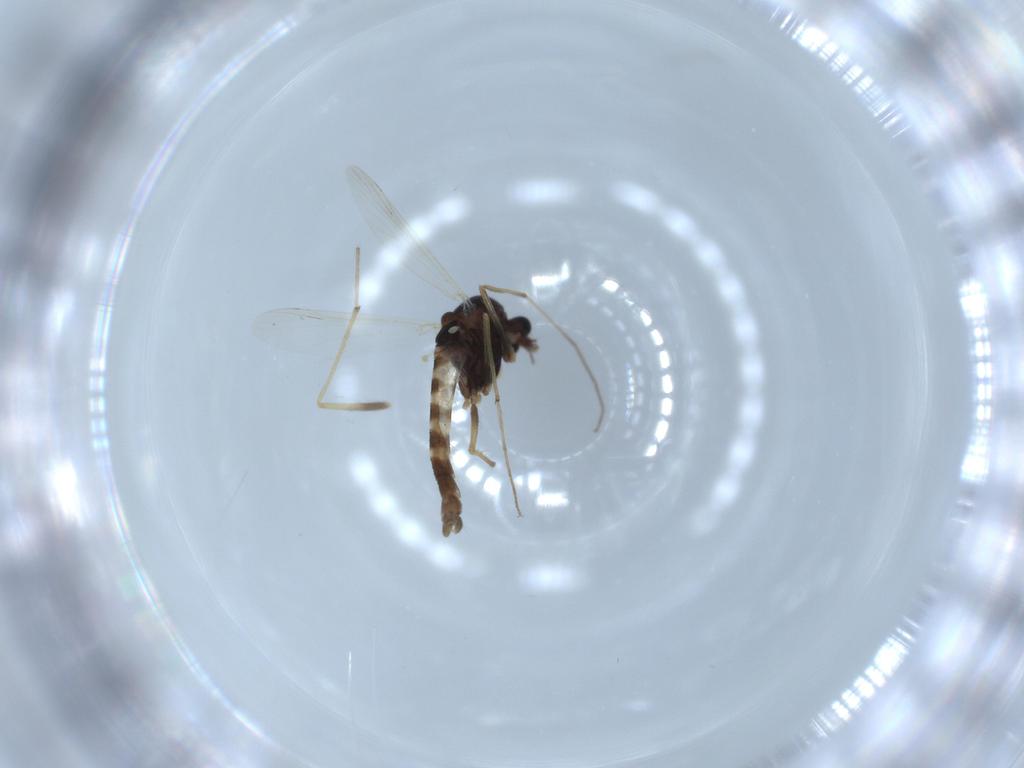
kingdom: Animalia
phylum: Arthropoda
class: Insecta
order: Diptera
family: Chironomidae
